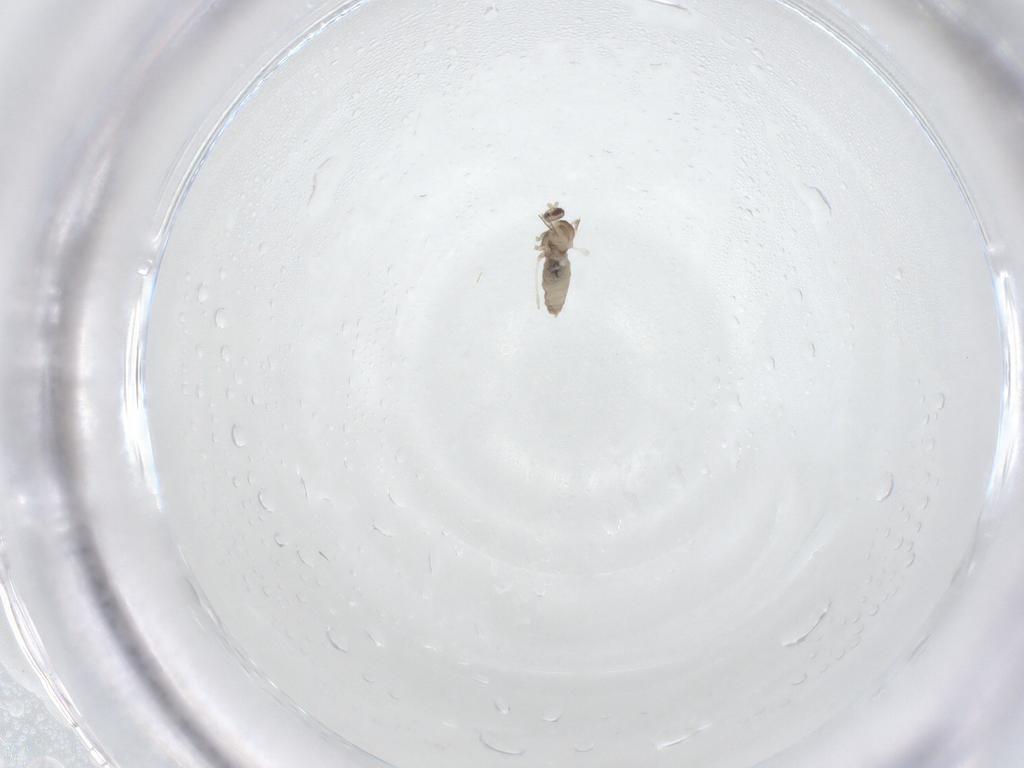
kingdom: Animalia
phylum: Arthropoda
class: Insecta
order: Diptera
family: Cecidomyiidae
